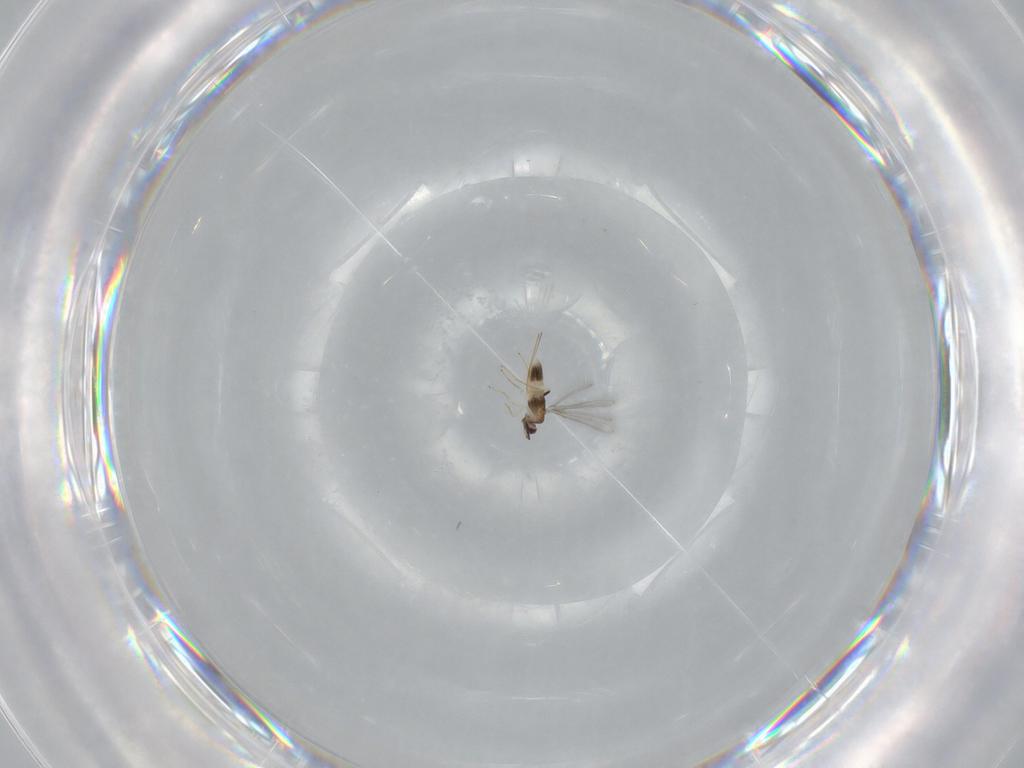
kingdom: Animalia
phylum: Arthropoda
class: Insecta
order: Hymenoptera
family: Mymaridae
